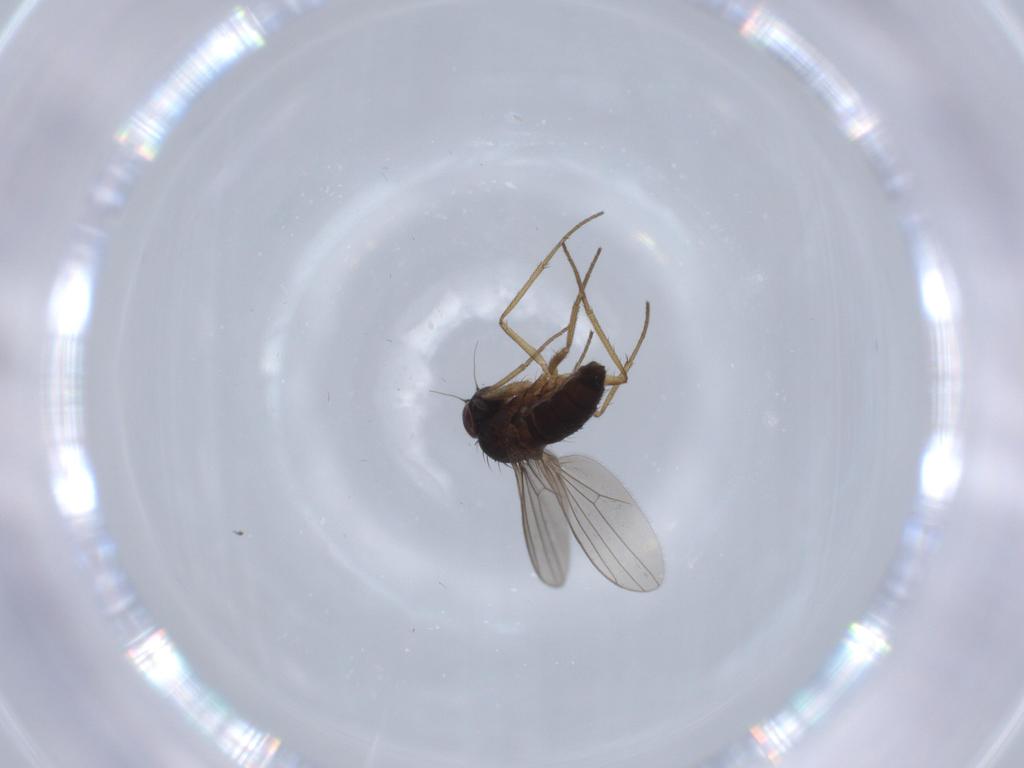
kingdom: Animalia
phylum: Arthropoda
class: Insecta
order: Diptera
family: Dolichopodidae
